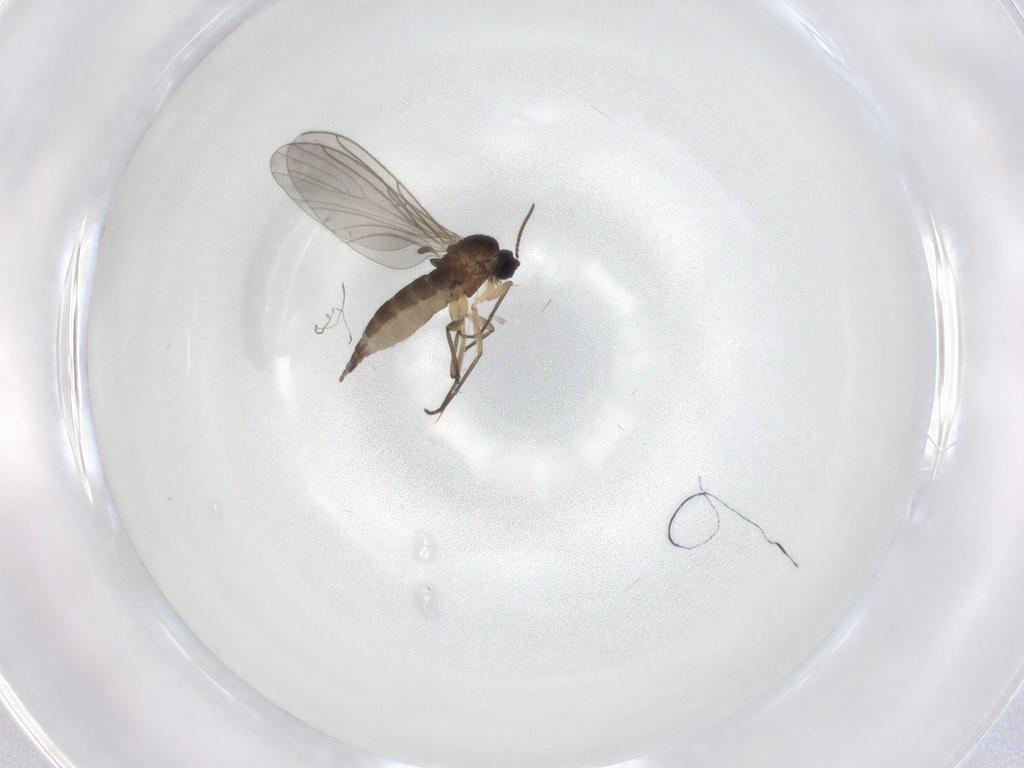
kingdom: Animalia
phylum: Arthropoda
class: Insecta
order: Diptera
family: Sciaridae
